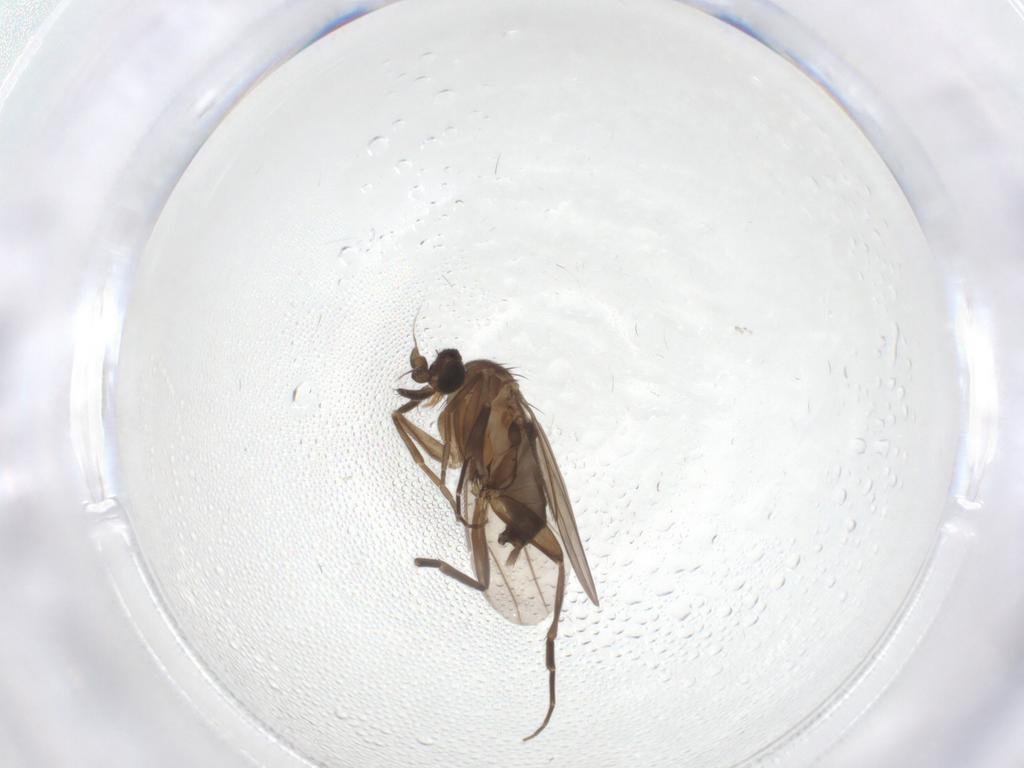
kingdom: Animalia
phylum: Arthropoda
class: Insecta
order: Diptera
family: Phoridae
